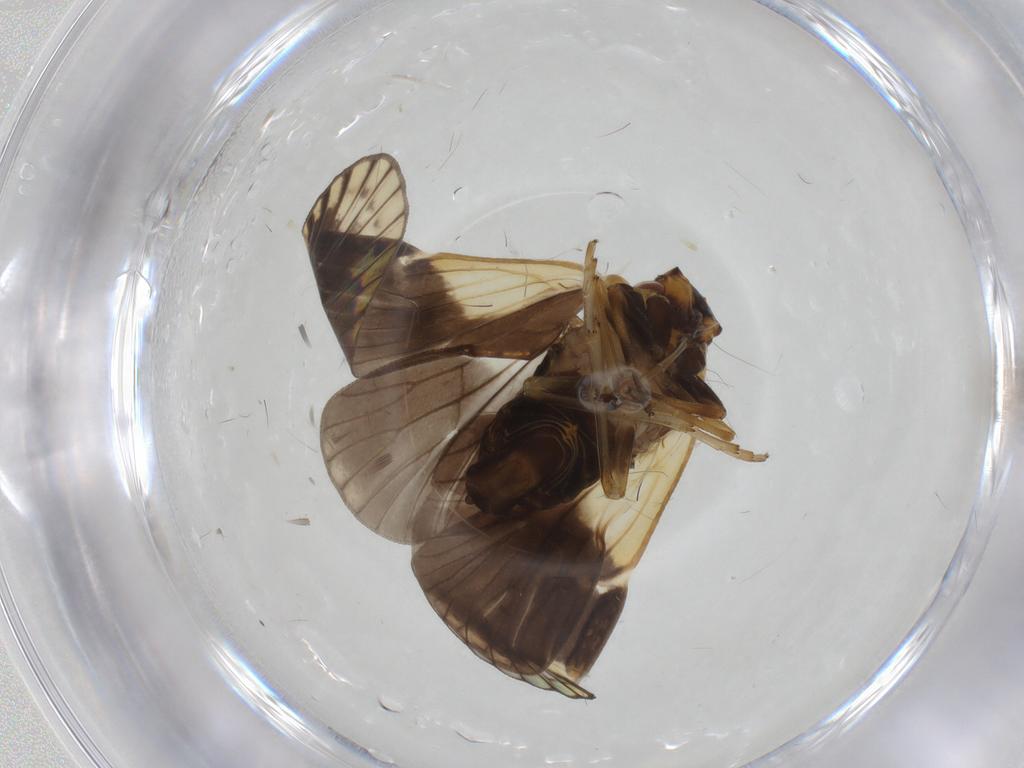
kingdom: Animalia
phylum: Arthropoda
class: Insecta
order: Hemiptera
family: Cixiidae
